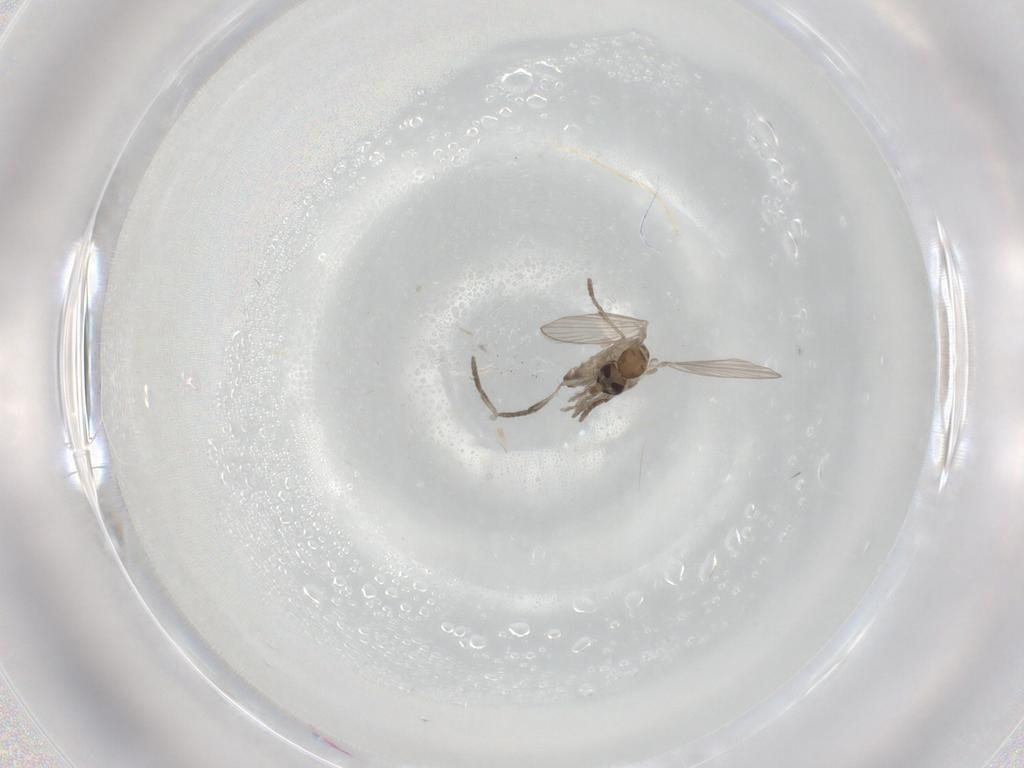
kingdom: Animalia
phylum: Arthropoda
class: Insecta
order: Diptera
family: Psychodidae
